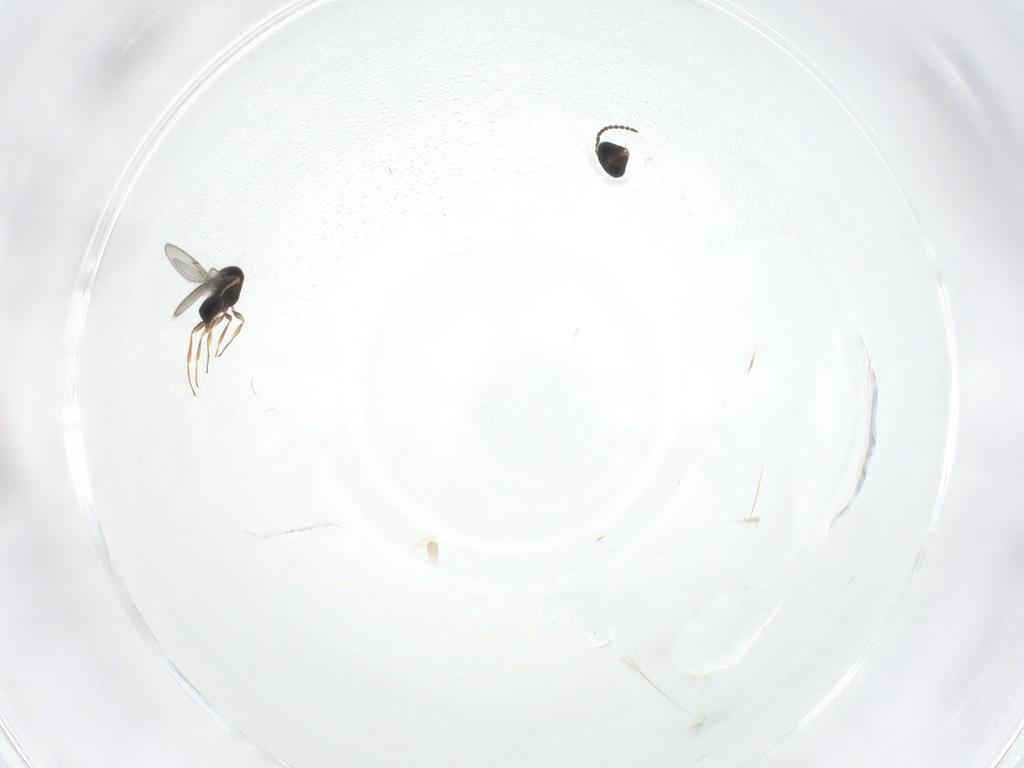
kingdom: Animalia
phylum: Arthropoda
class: Insecta
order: Hymenoptera
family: Scelionidae
